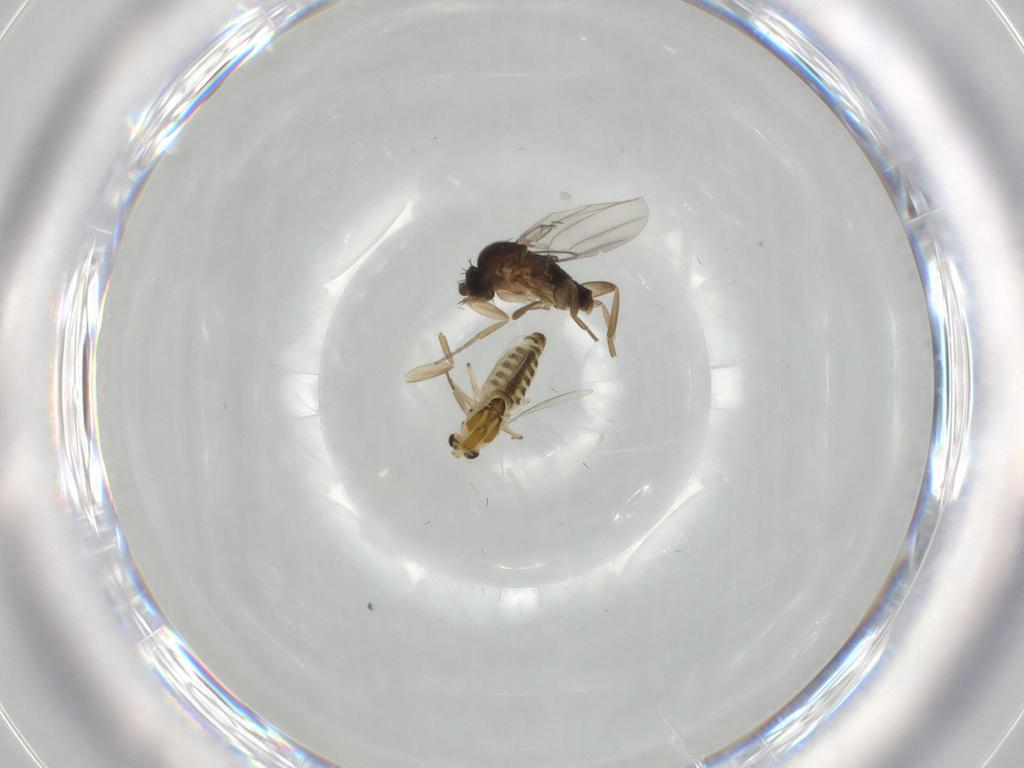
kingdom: Animalia
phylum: Arthropoda
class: Insecta
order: Diptera
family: Chironomidae
